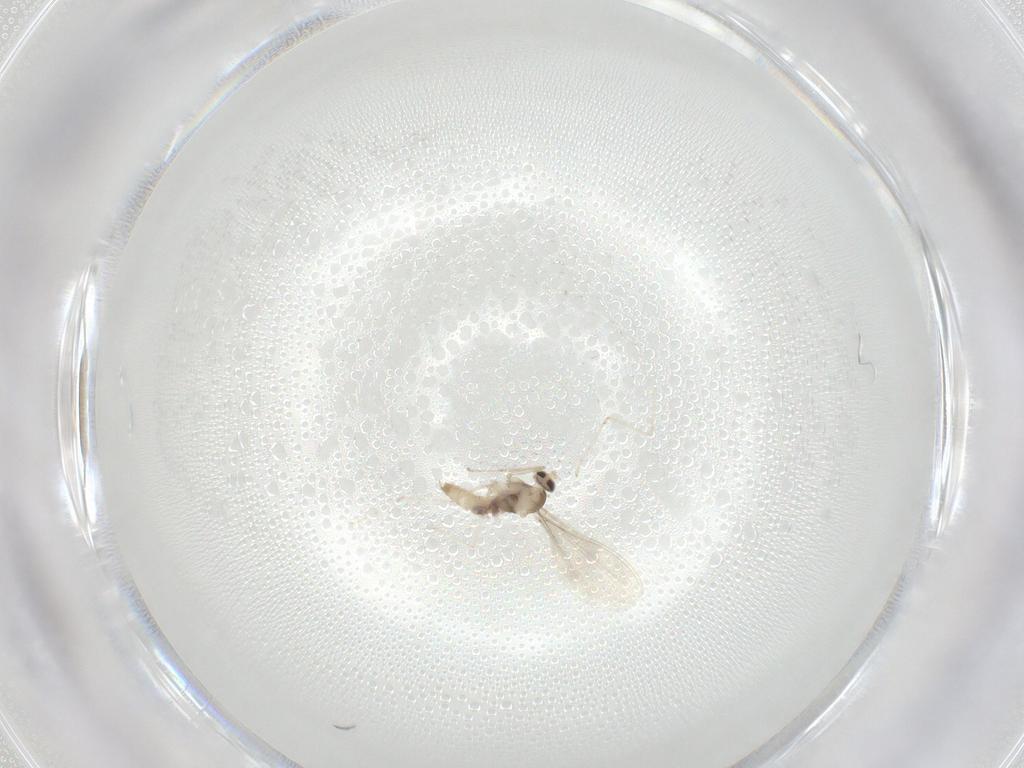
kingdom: Animalia
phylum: Arthropoda
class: Insecta
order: Diptera
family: Cecidomyiidae
